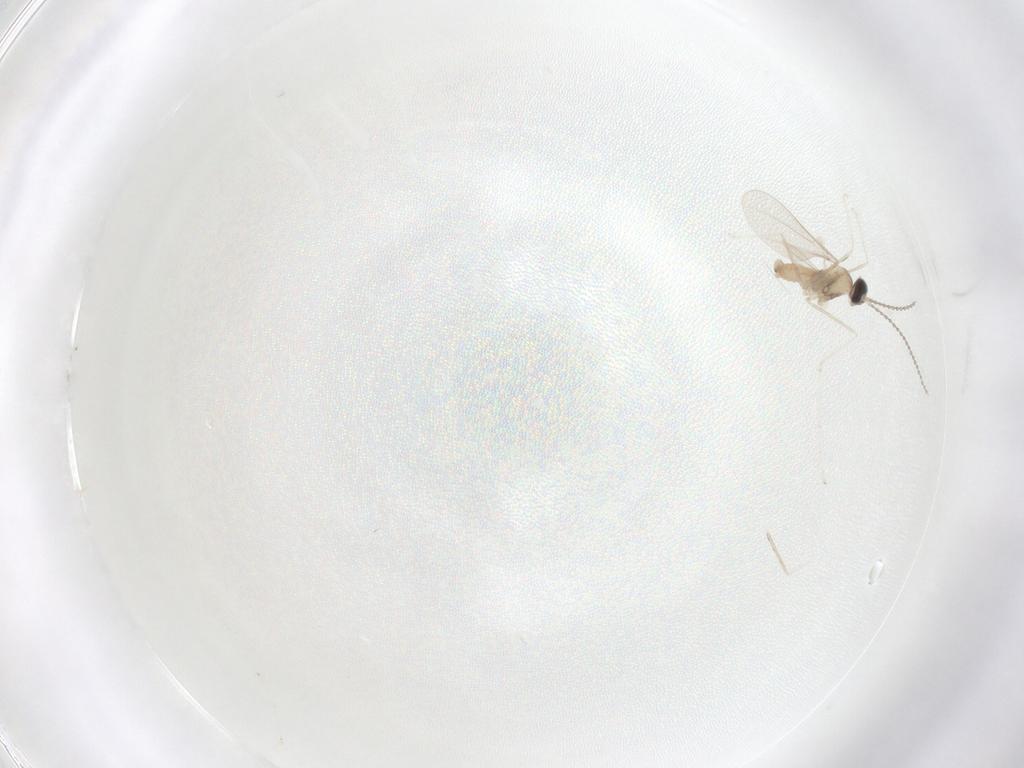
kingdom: Animalia
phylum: Arthropoda
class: Insecta
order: Diptera
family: Cecidomyiidae
